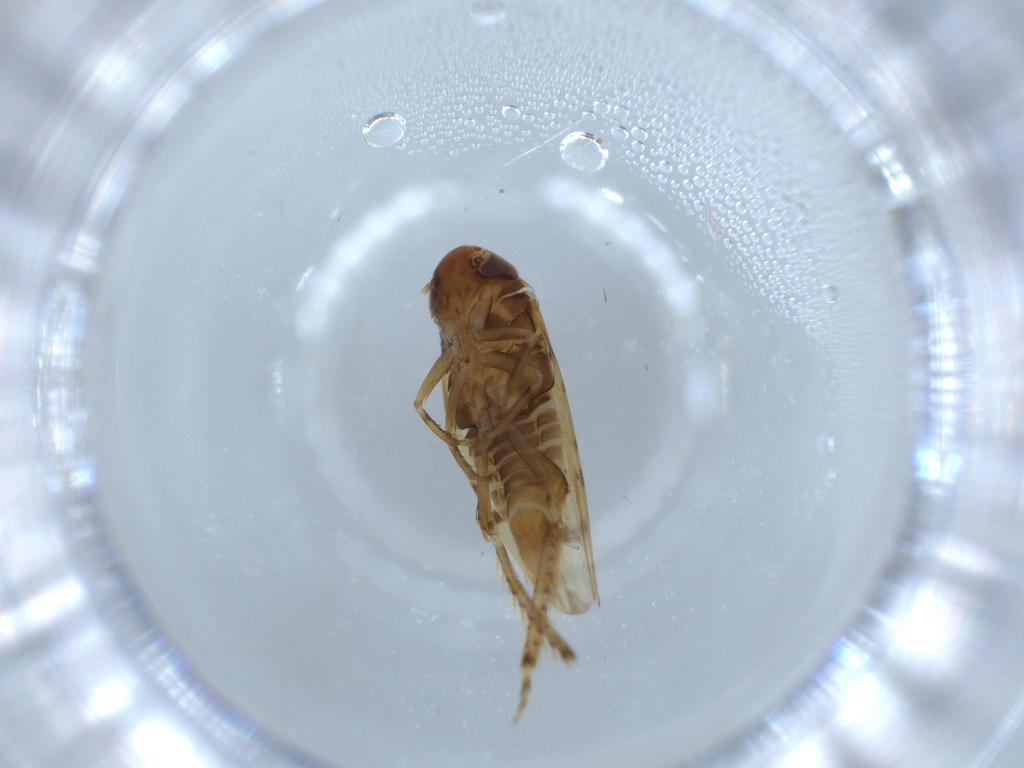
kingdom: Animalia
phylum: Arthropoda
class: Insecta
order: Hemiptera
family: Cicadellidae
